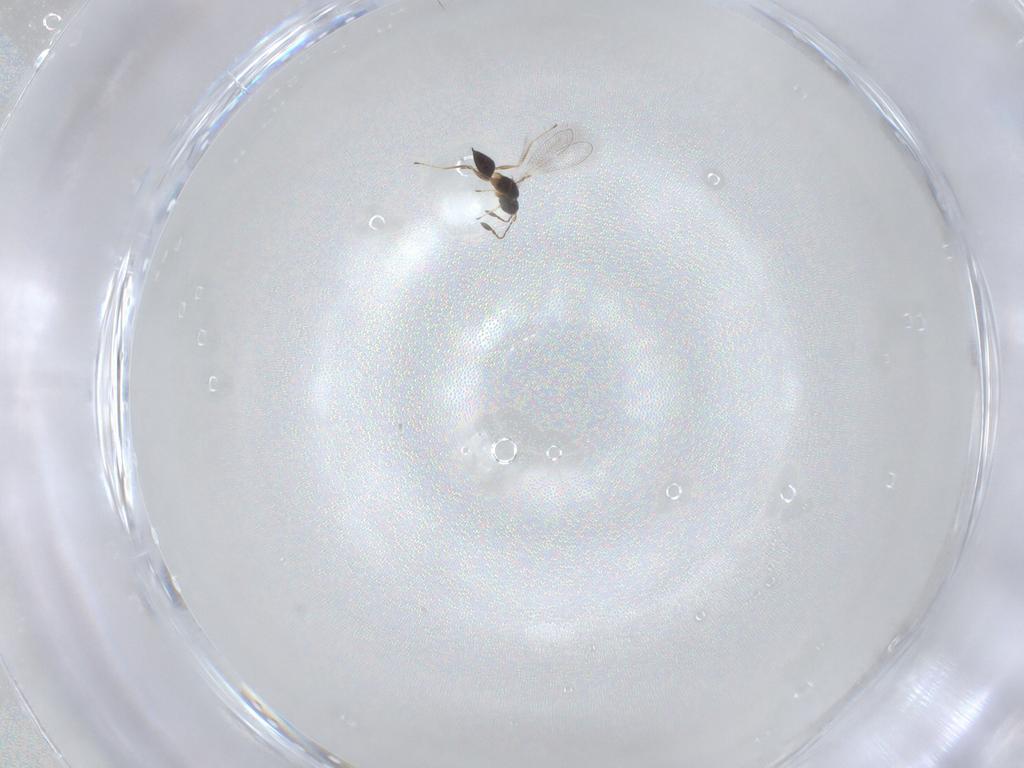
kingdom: Animalia
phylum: Arthropoda
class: Insecta
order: Hymenoptera
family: Aphelinidae
